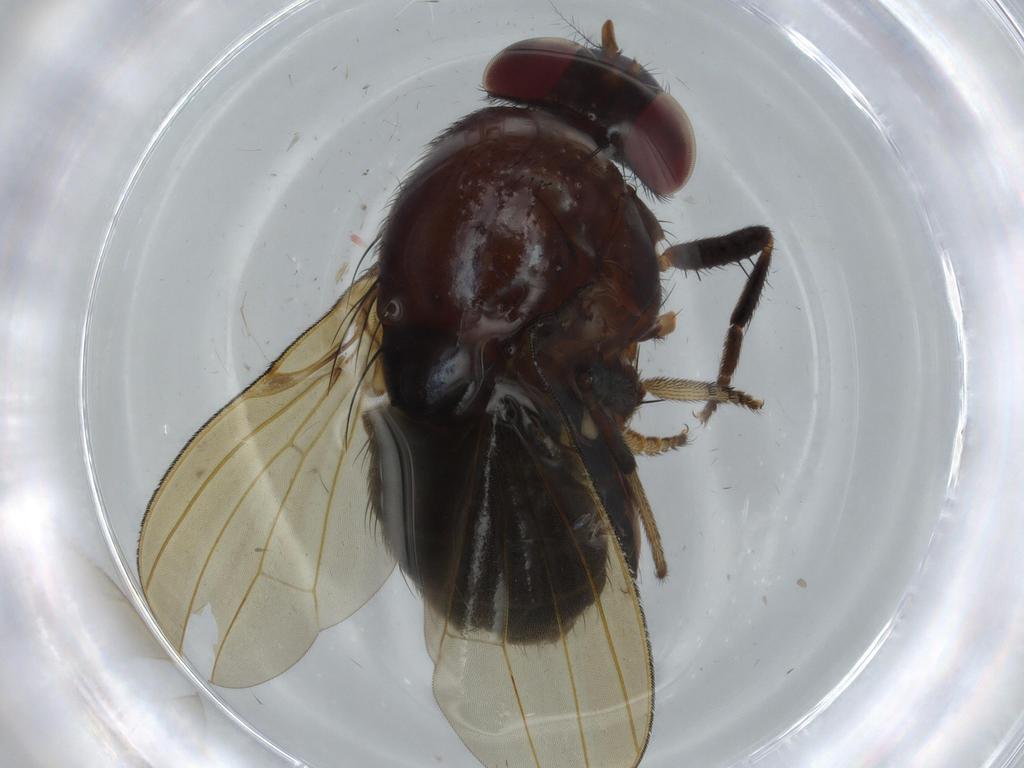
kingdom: Animalia
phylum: Arthropoda
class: Insecta
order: Diptera
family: Lauxaniidae
